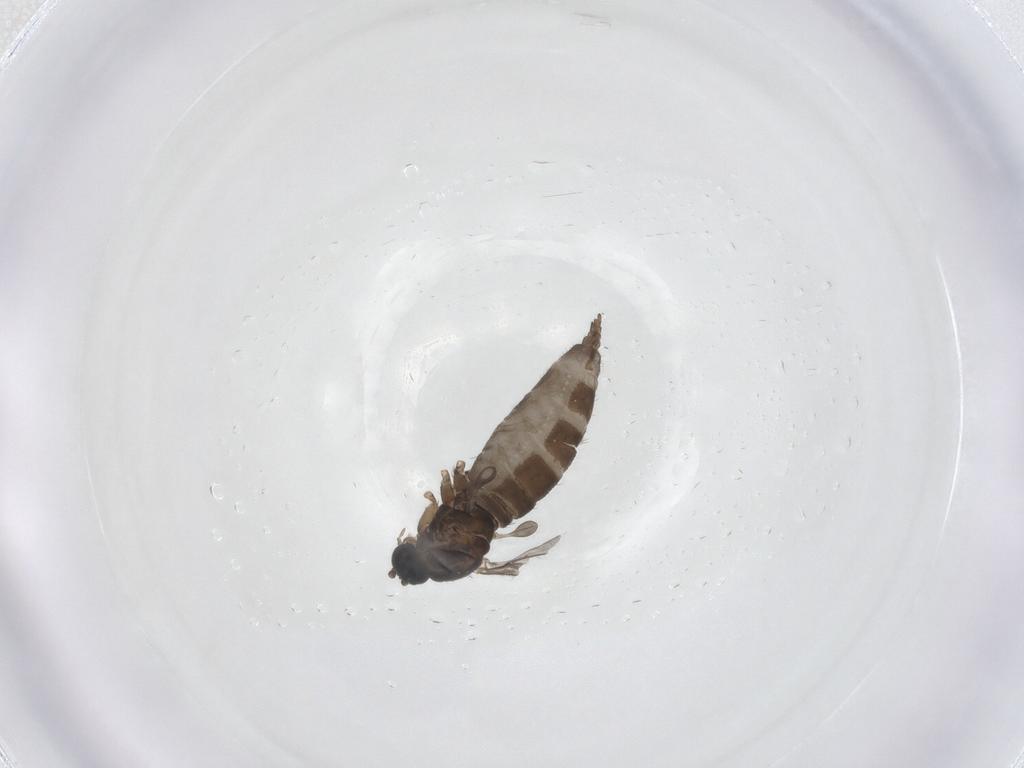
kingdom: Animalia
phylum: Arthropoda
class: Insecta
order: Diptera
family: Sciaridae
